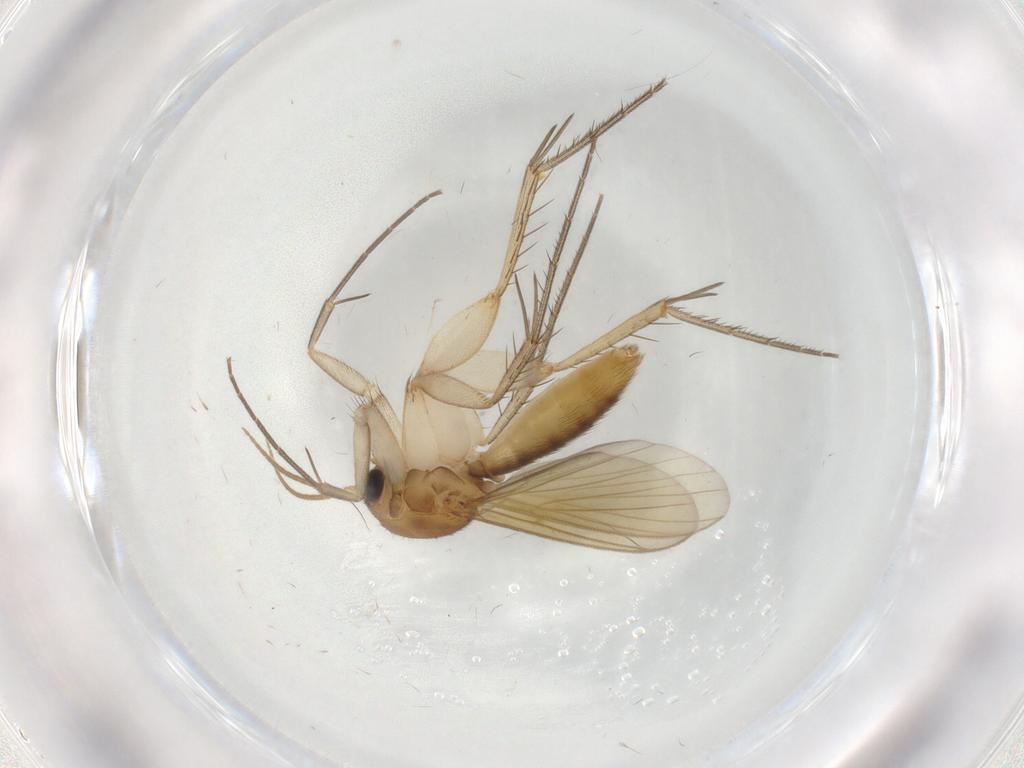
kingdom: Animalia
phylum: Arthropoda
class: Insecta
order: Diptera
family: Mycetophilidae
